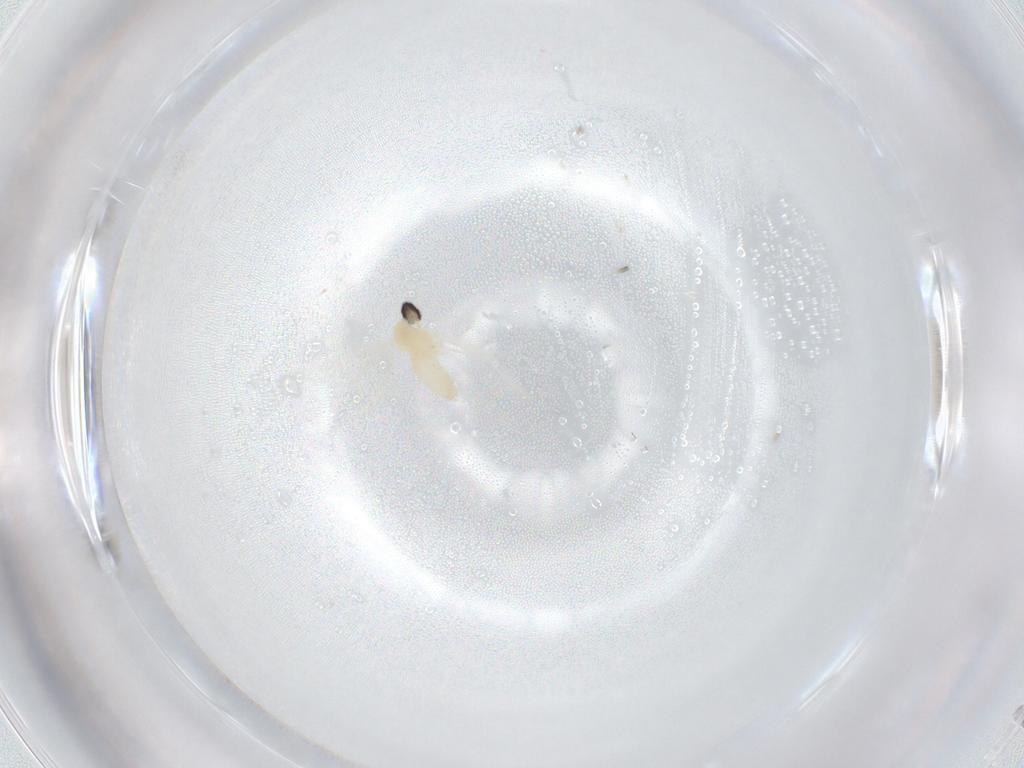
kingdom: Animalia
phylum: Arthropoda
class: Insecta
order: Diptera
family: Cecidomyiidae
